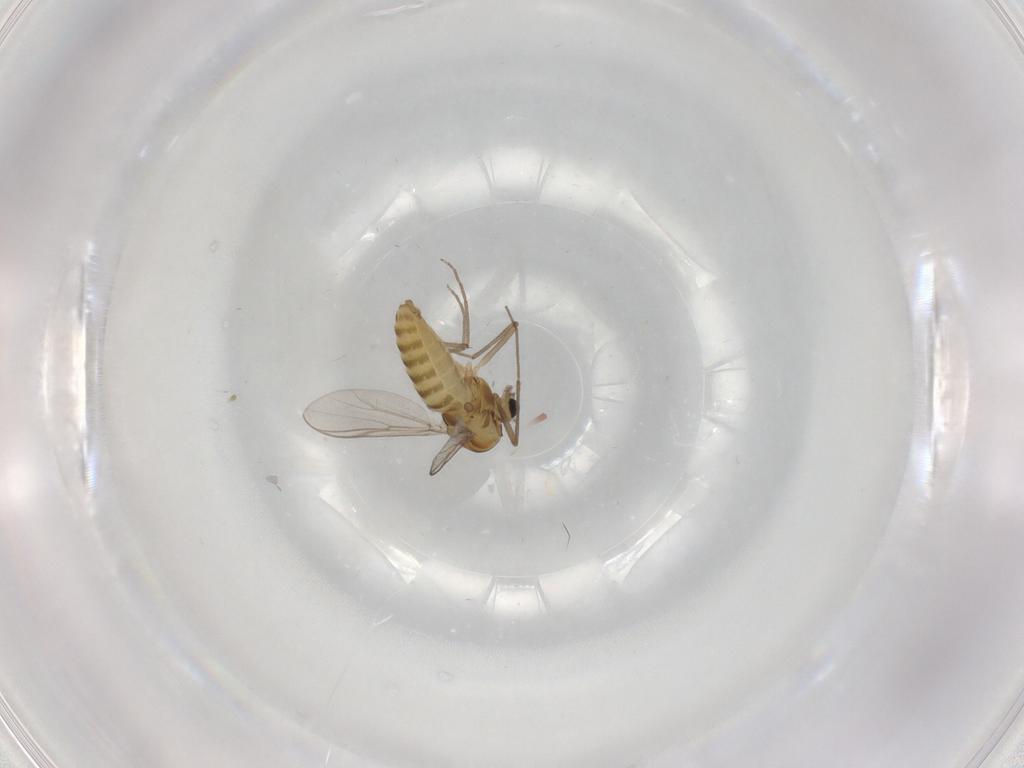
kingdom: Animalia
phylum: Arthropoda
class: Insecta
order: Diptera
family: Chironomidae
